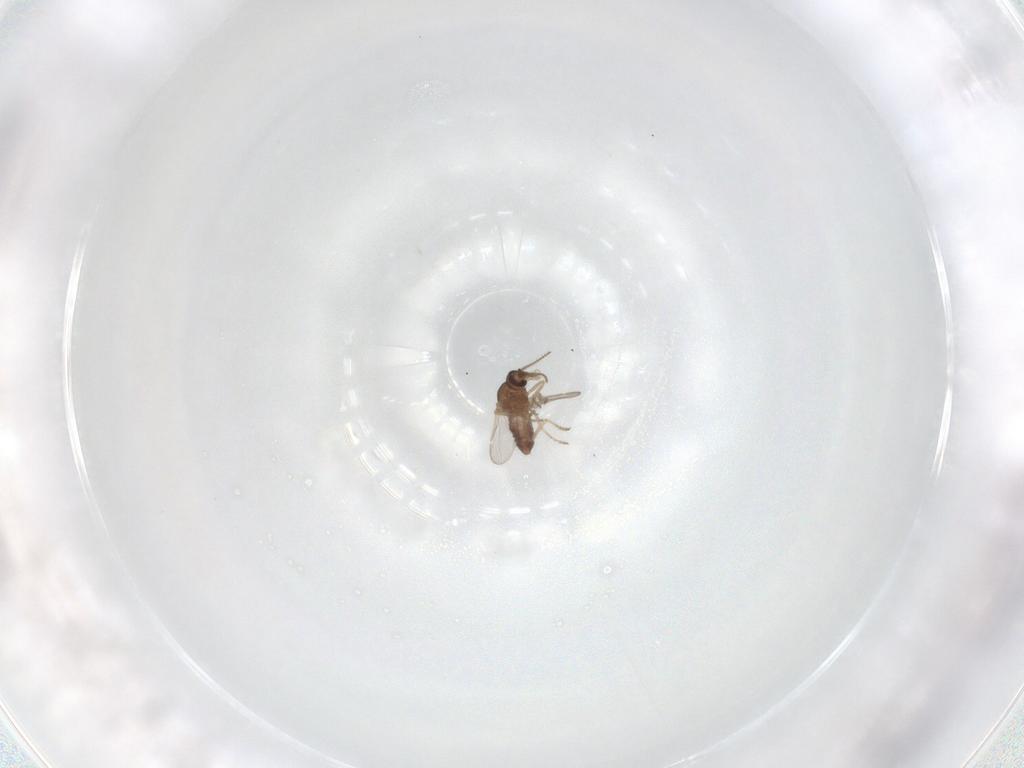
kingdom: Animalia
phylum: Arthropoda
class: Insecta
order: Diptera
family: Ceratopogonidae
